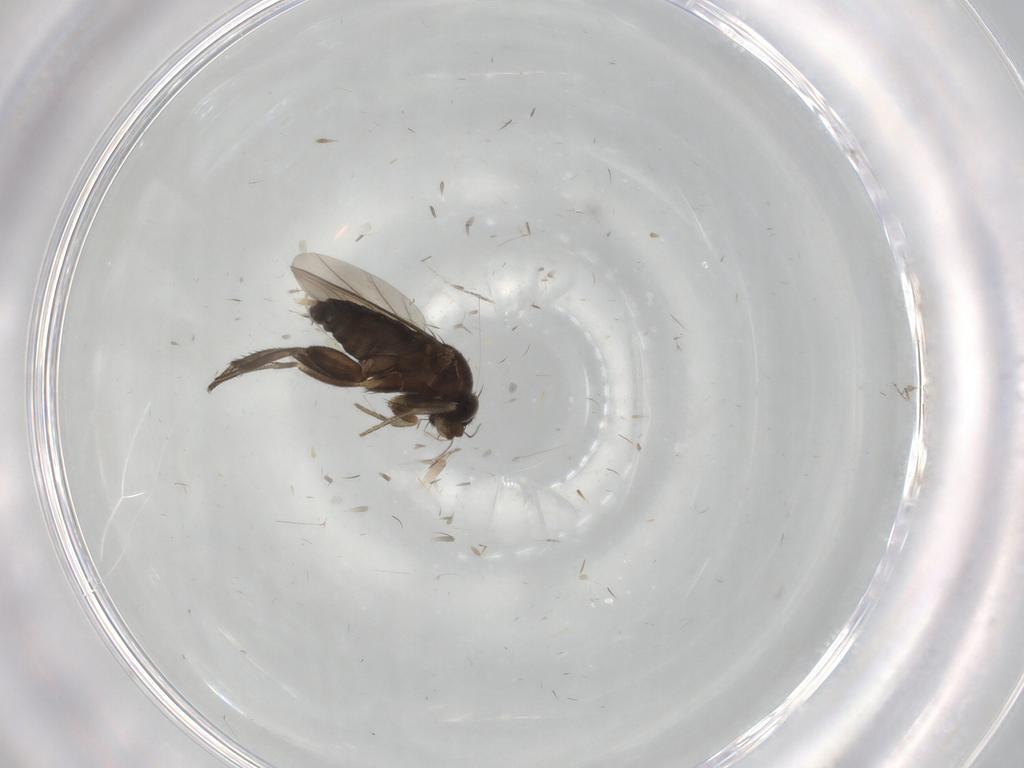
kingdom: Animalia
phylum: Arthropoda
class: Insecta
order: Diptera
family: Phoridae
